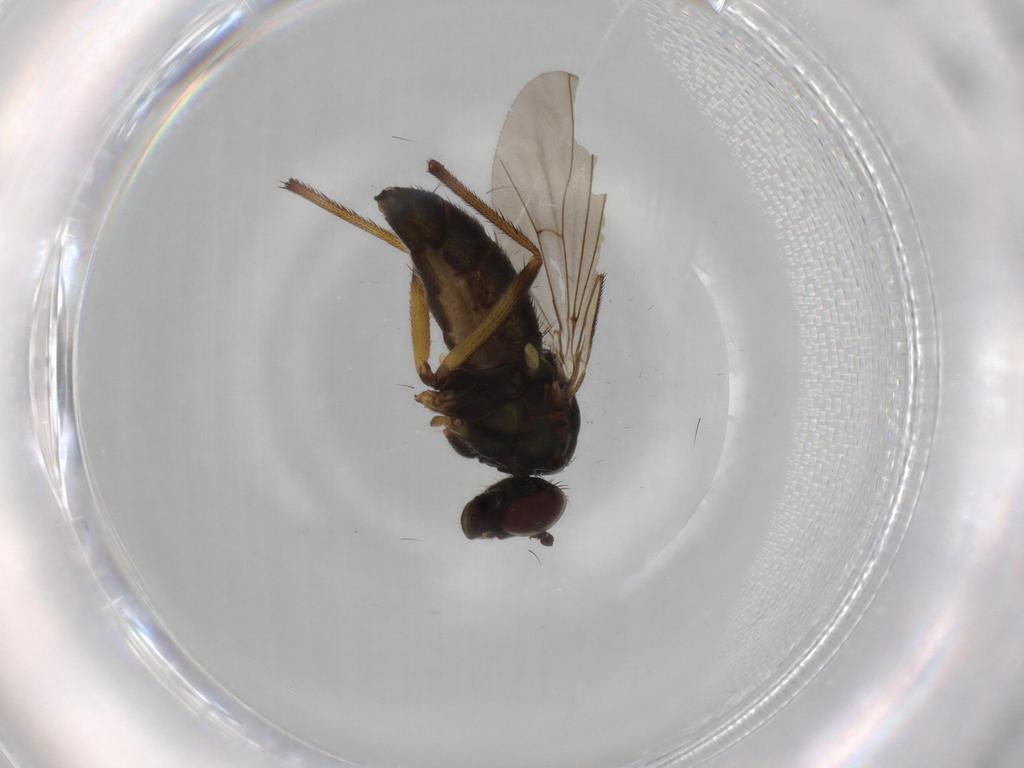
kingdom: Animalia
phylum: Arthropoda
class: Insecta
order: Diptera
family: Dolichopodidae
